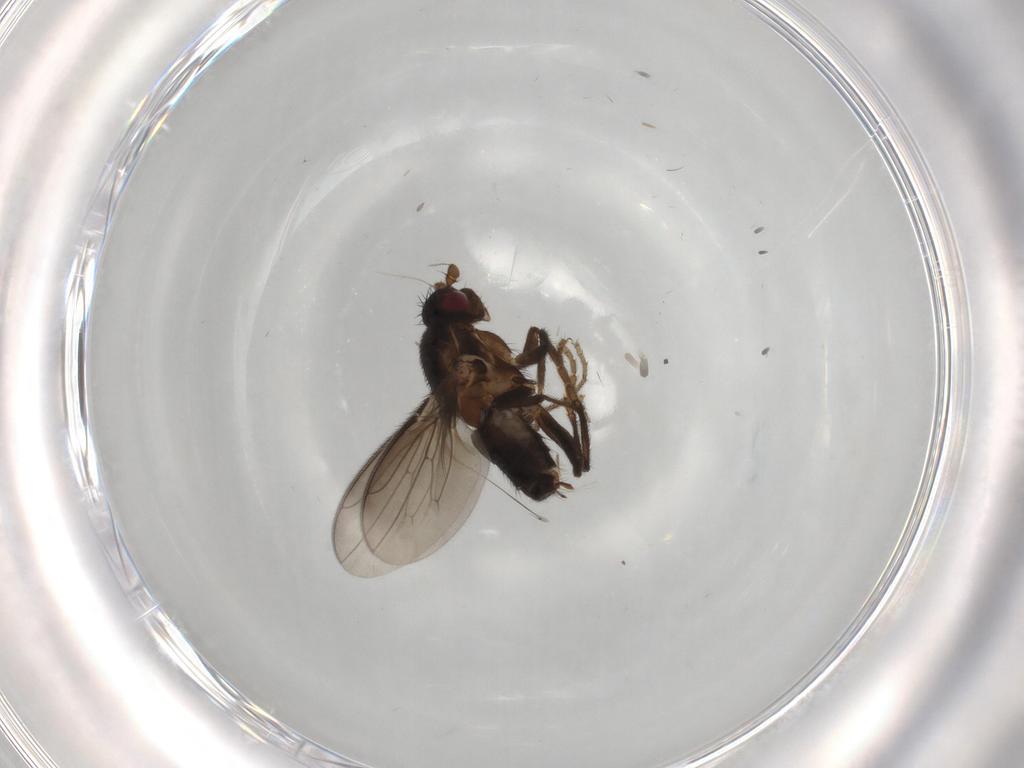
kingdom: Animalia
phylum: Arthropoda
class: Insecta
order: Diptera
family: Sphaeroceridae
